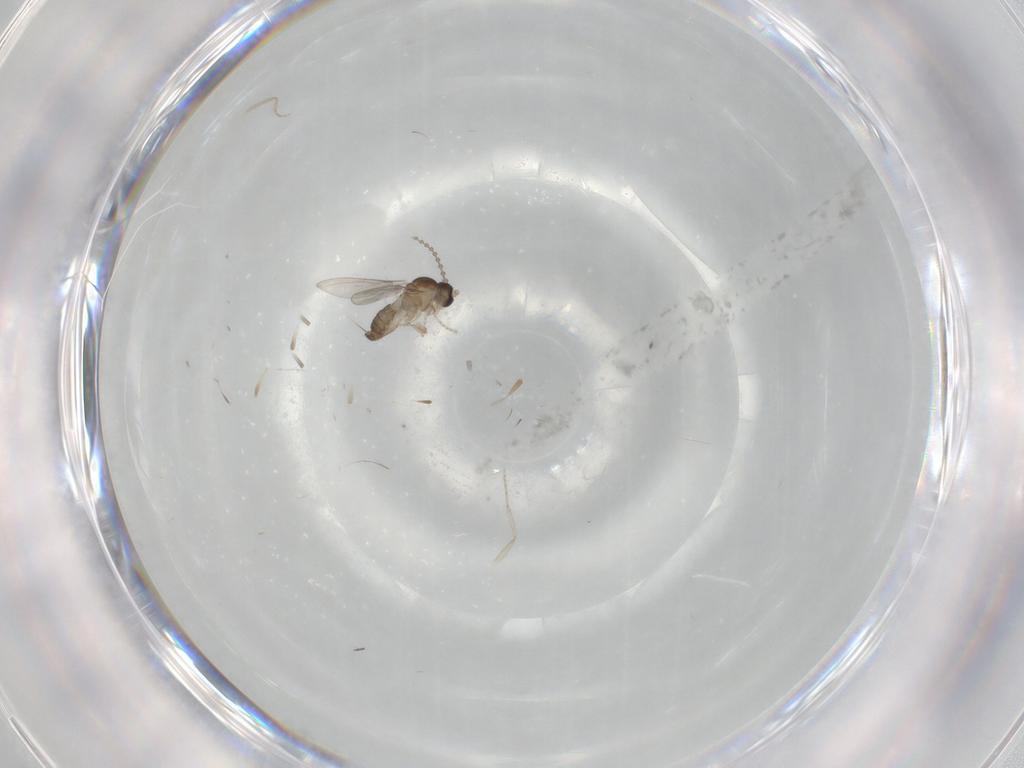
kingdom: Animalia
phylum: Arthropoda
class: Insecta
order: Diptera
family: Cecidomyiidae
